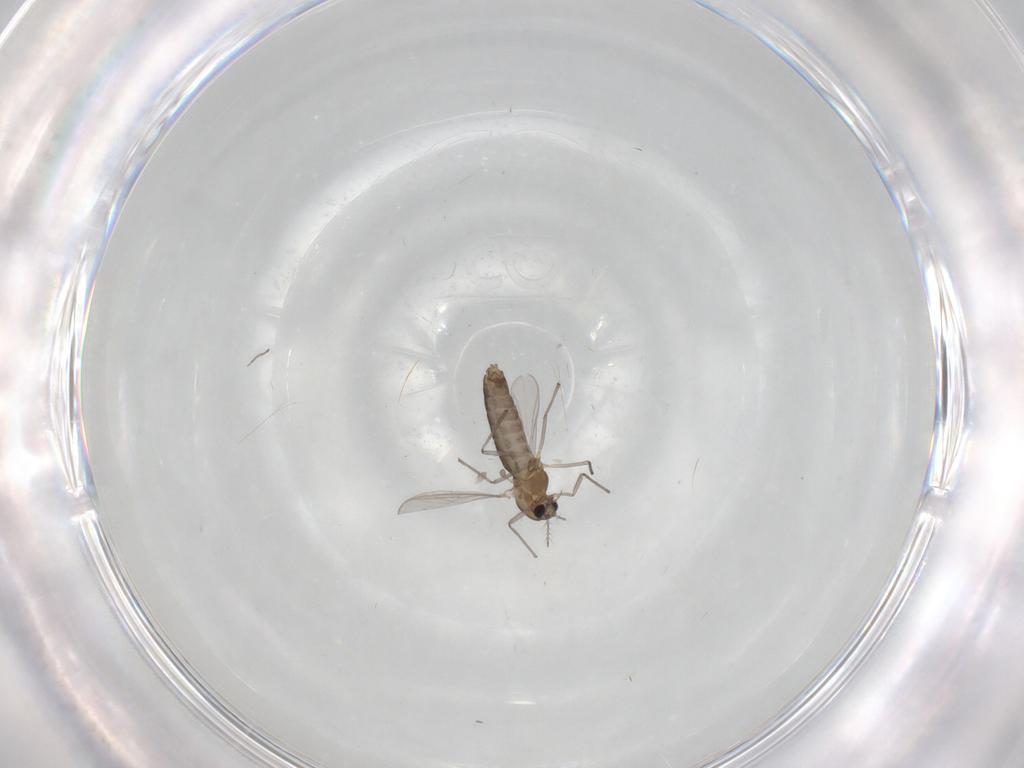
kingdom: Animalia
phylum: Arthropoda
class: Insecta
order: Diptera
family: Chironomidae
